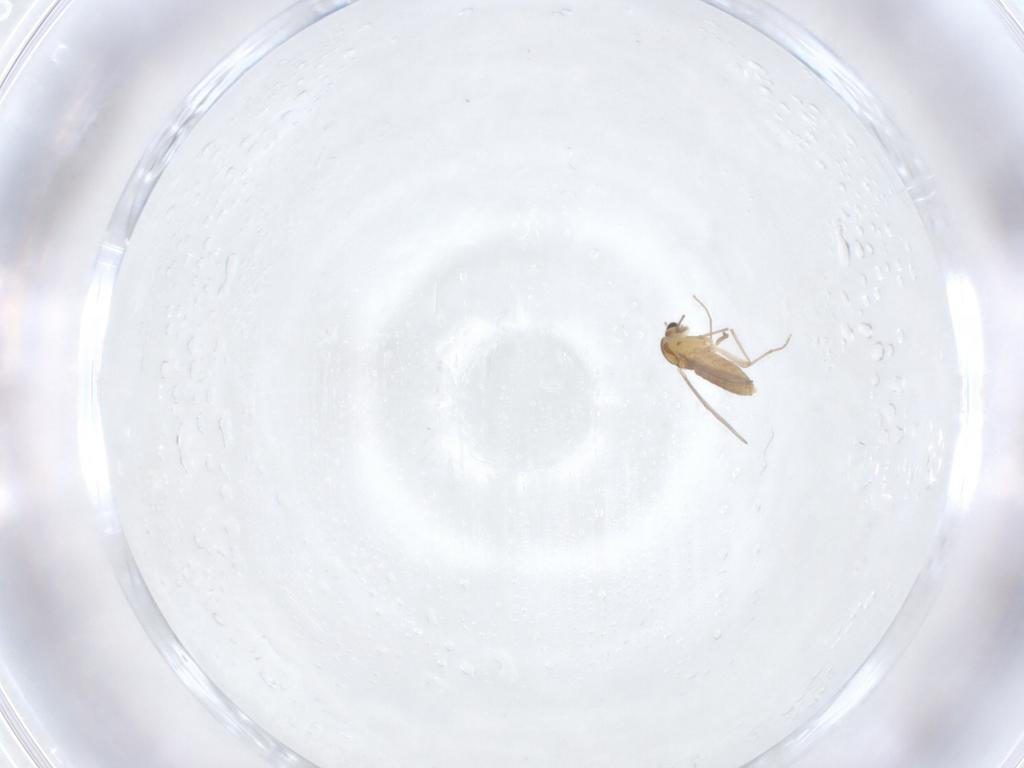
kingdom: Animalia
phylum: Arthropoda
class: Insecta
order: Diptera
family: Chironomidae
